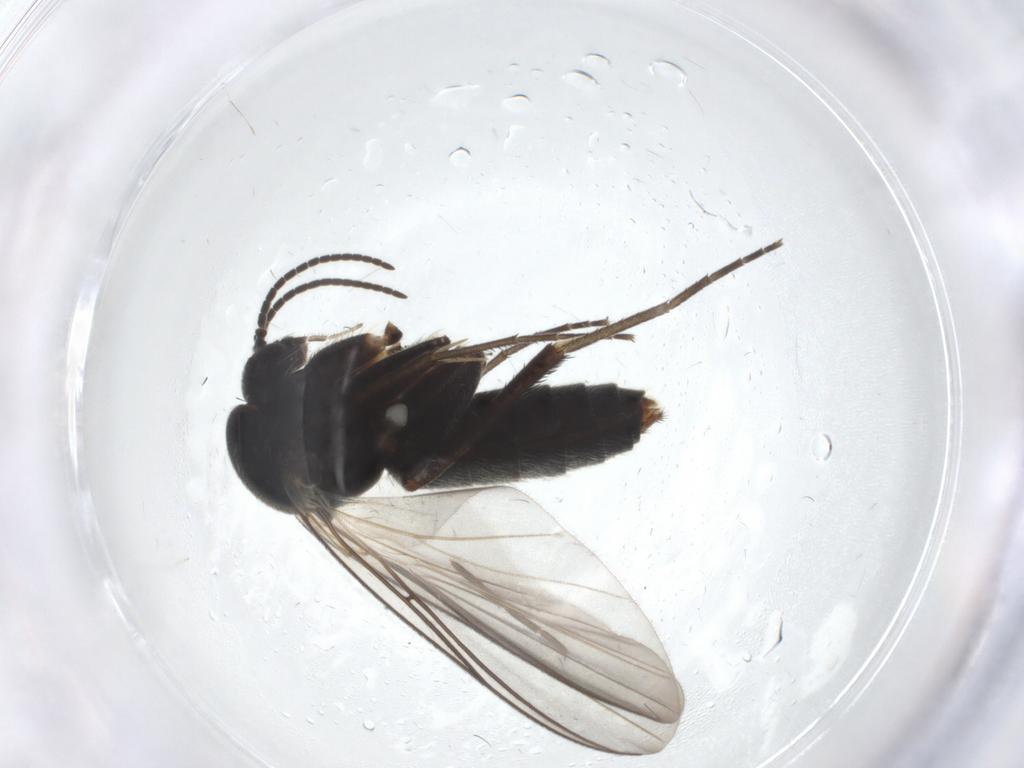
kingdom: Animalia
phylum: Arthropoda
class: Insecta
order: Diptera
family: Mycetophilidae
